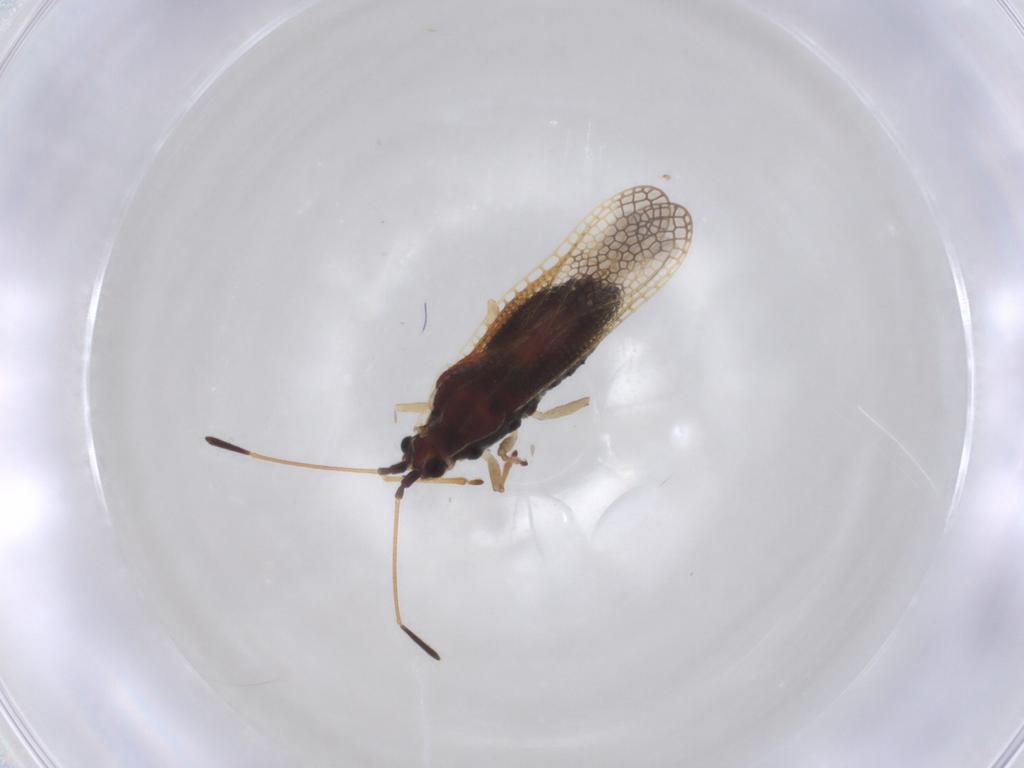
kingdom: Animalia
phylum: Arthropoda
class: Insecta
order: Hemiptera
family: Tingidae
